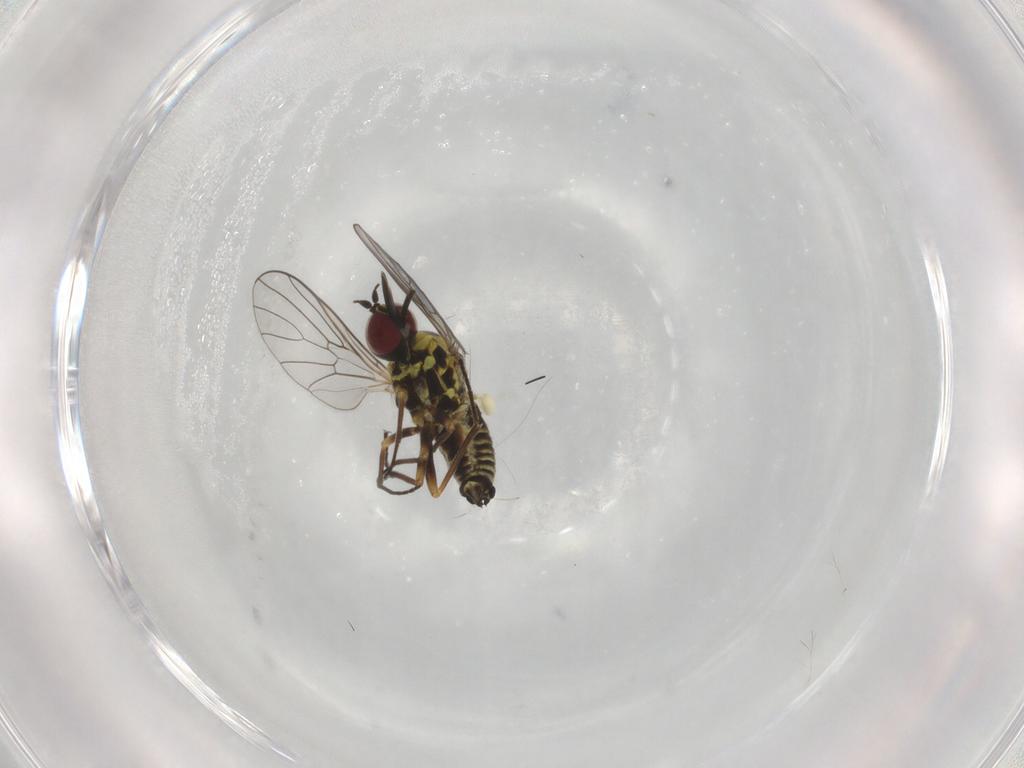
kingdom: Animalia
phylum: Arthropoda
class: Insecta
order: Diptera
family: Bombyliidae
